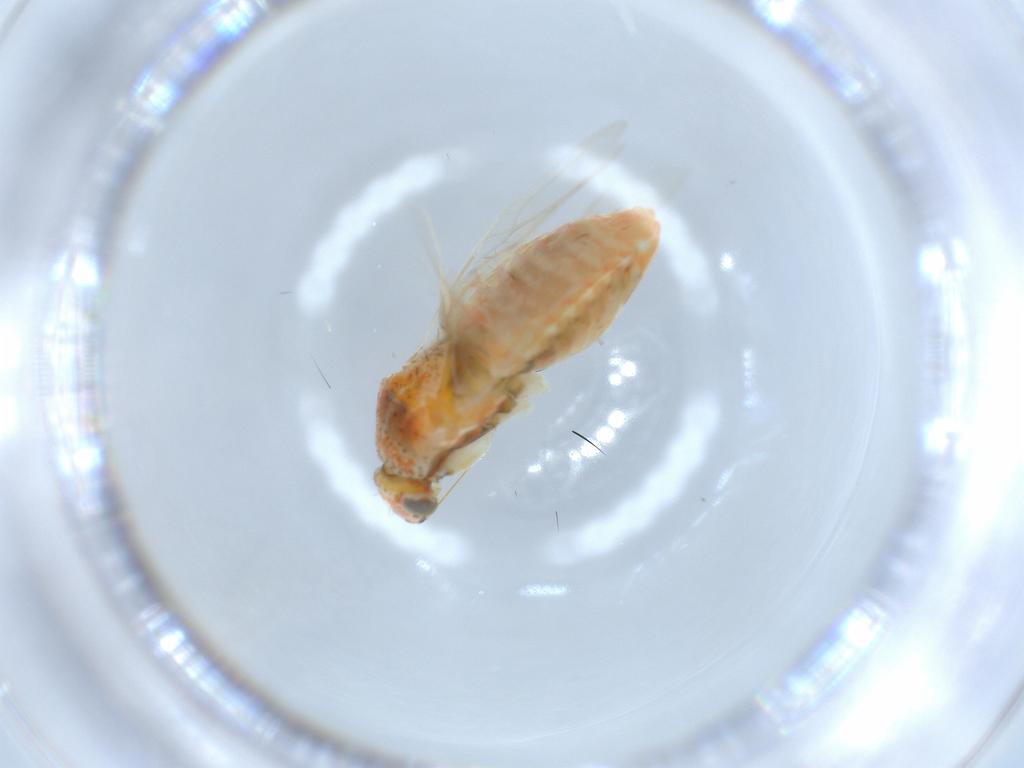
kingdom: Animalia
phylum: Arthropoda
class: Insecta
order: Hemiptera
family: Miridae
